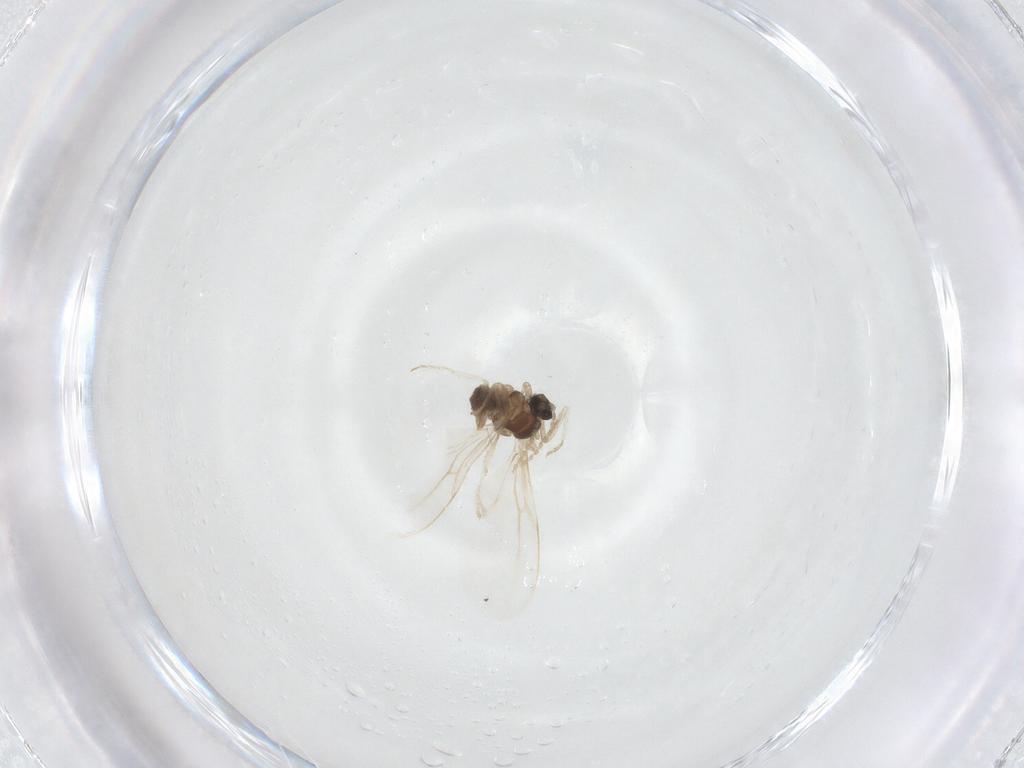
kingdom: Animalia
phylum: Arthropoda
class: Insecta
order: Diptera
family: Cecidomyiidae
